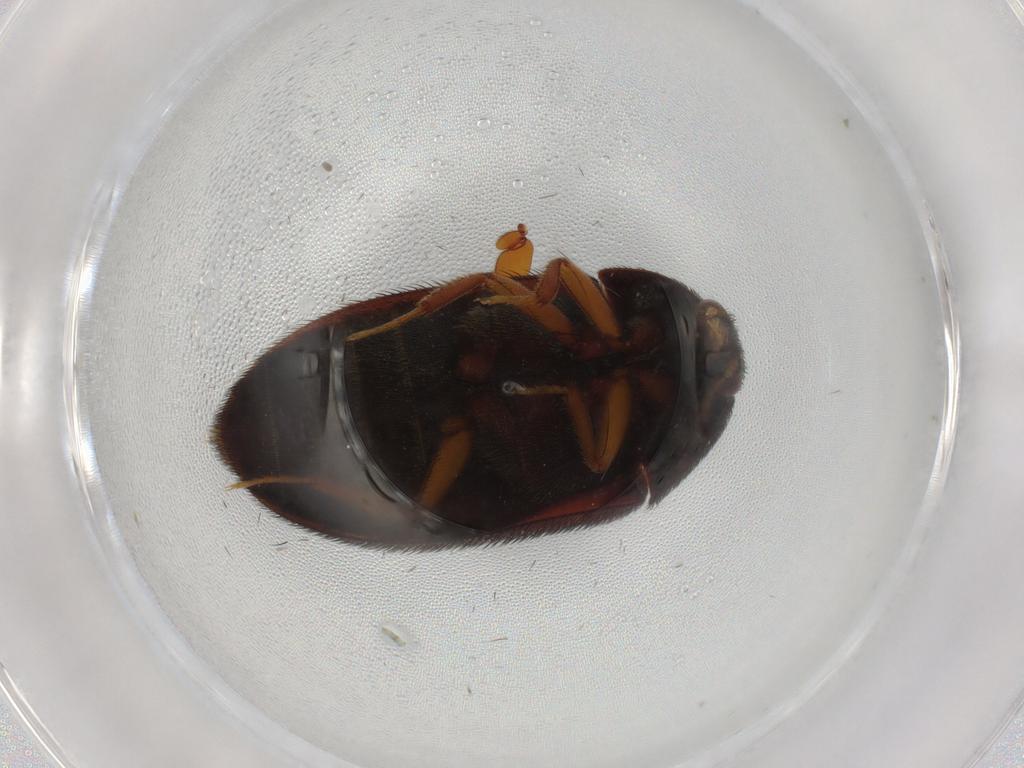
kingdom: Animalia
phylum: Arthropoda
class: Insecta
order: Coleoptera
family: Dermestidae
